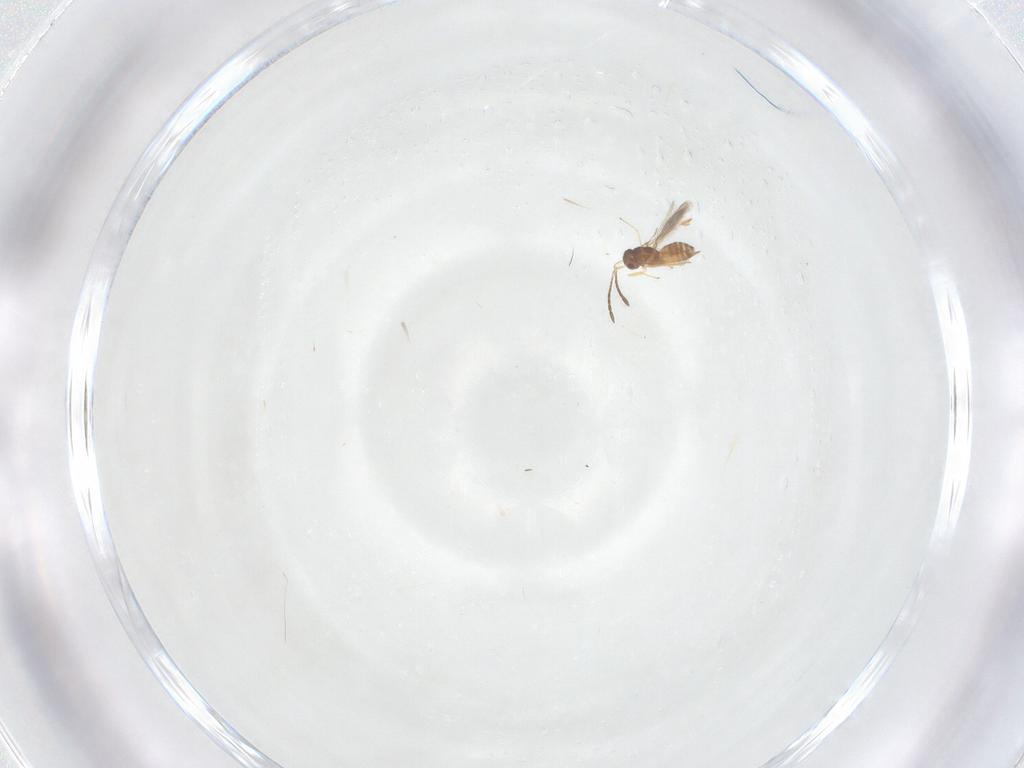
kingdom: Animalia
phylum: Arthropoda
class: Insecta
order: Hymenoptera
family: Mymaridae
